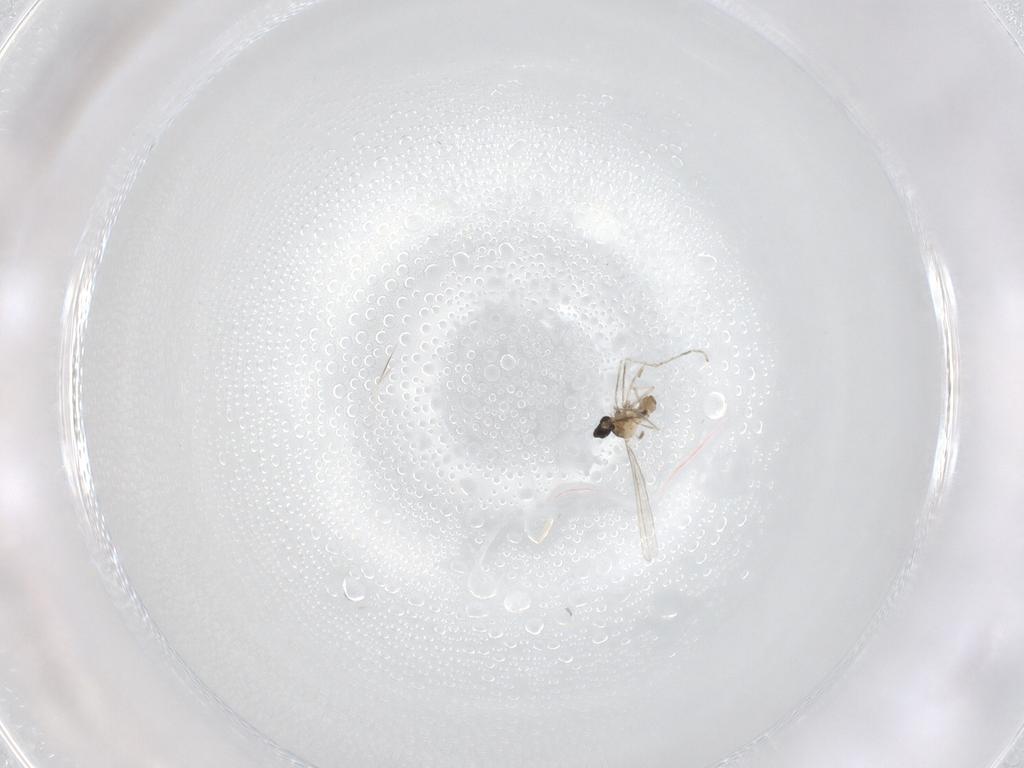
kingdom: Animalia
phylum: Arthropoda
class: Insecta
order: Diptera
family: Cecidomyiidae
